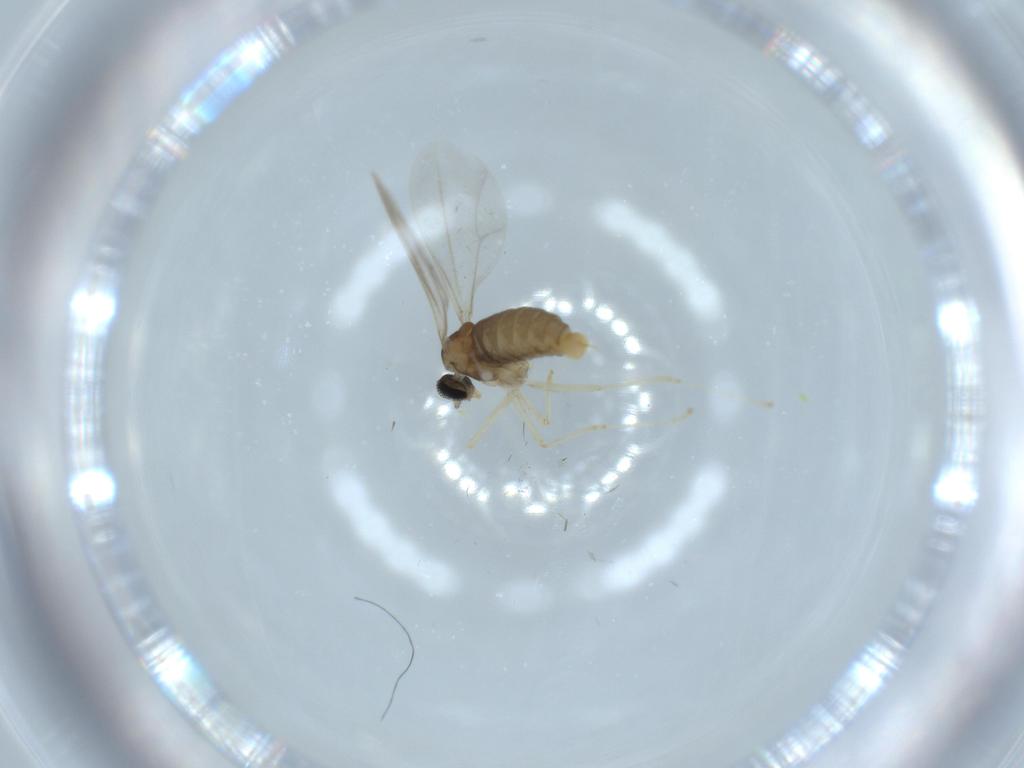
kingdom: Animalia
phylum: Arthropoda
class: Insecta
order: Diptera
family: Cecidomyiidae
